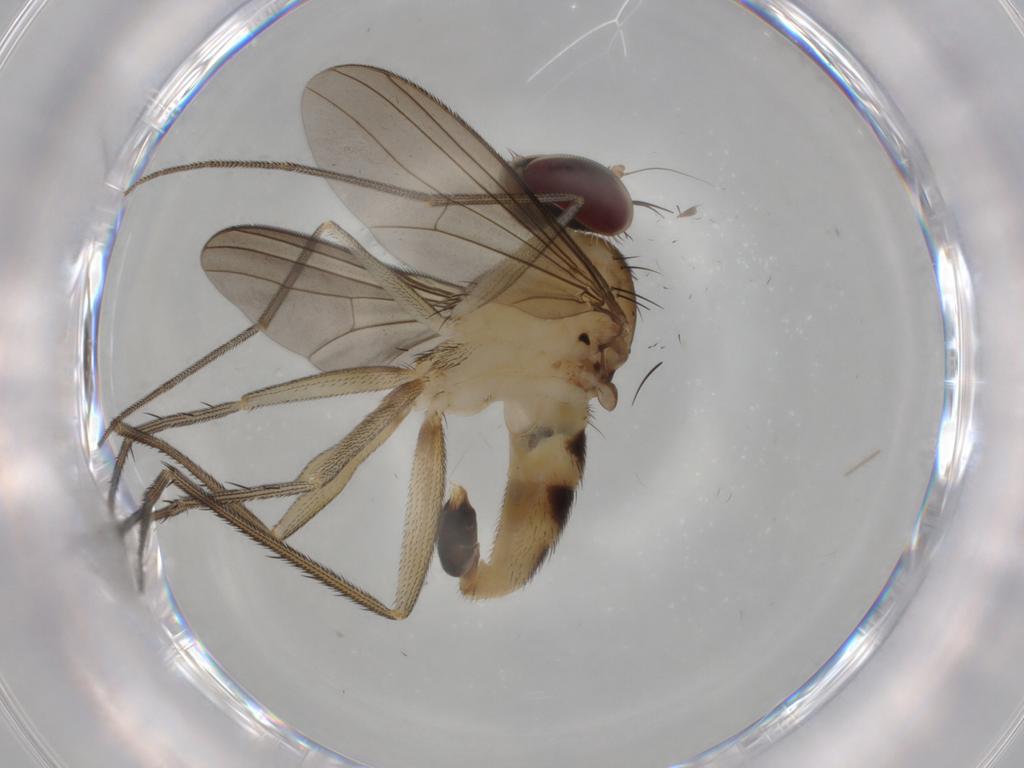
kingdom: Animalia
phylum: Arthropoda
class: Insecta
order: Diptera
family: Dolichopodidae
